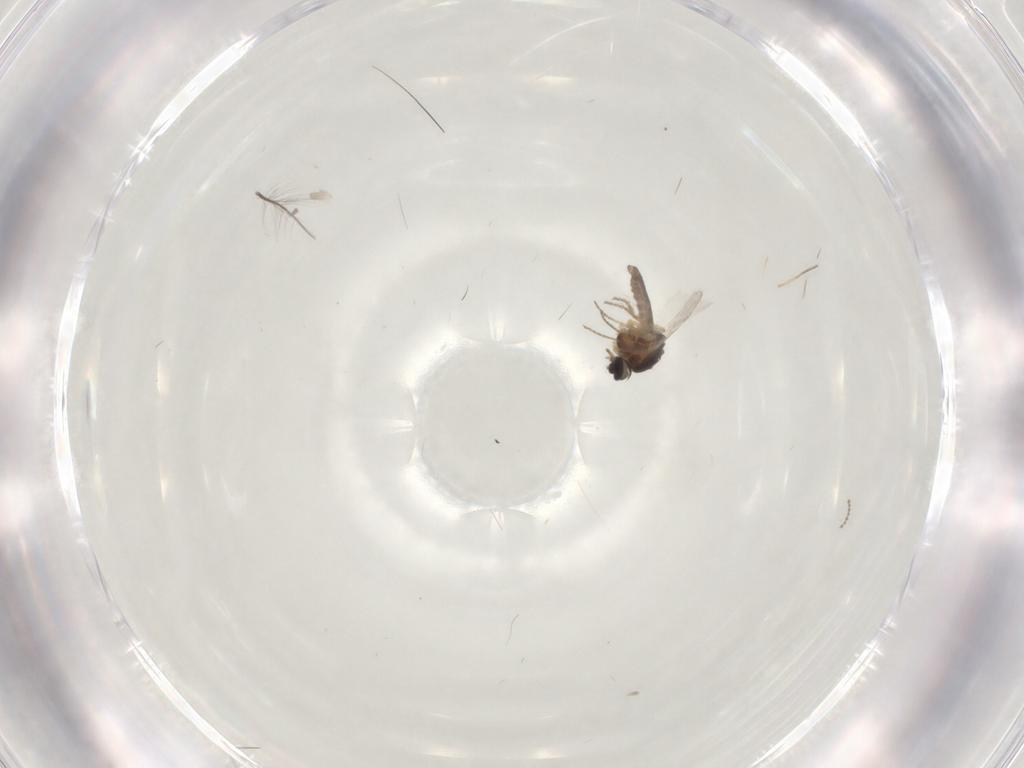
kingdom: Animalia
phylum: Arthropoda
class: Insecta
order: Diptera
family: Ceratopogonidae
